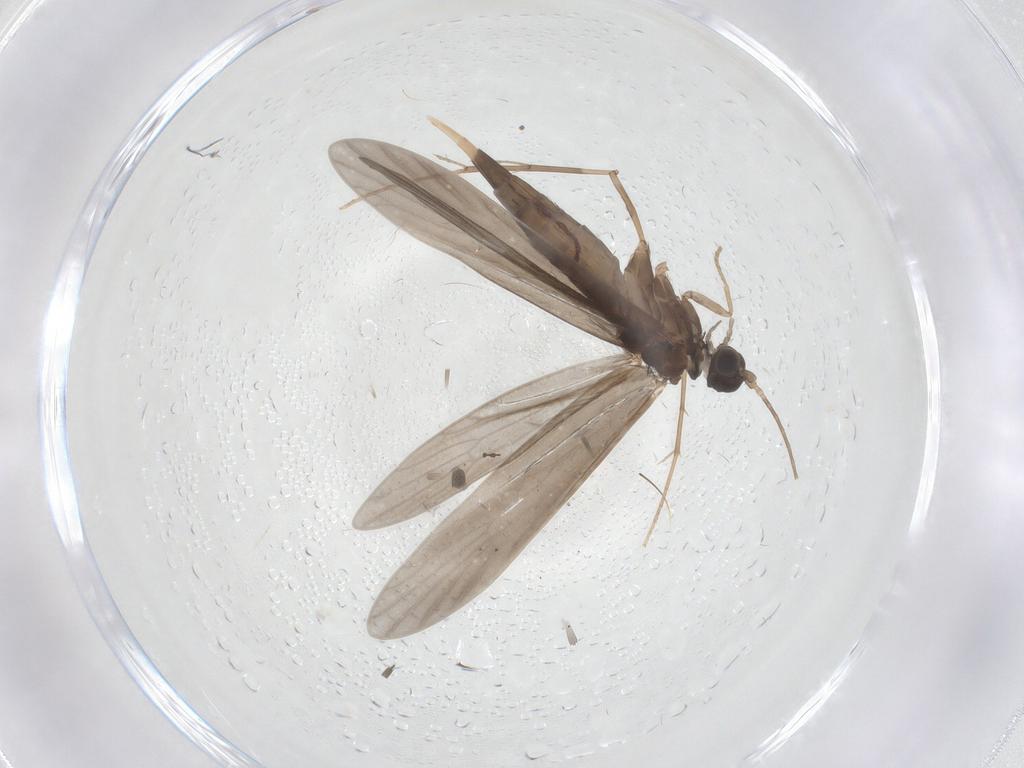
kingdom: Animalia
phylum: Arthropoda
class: Insecta
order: Trichoptera
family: Xiphocentronidae
